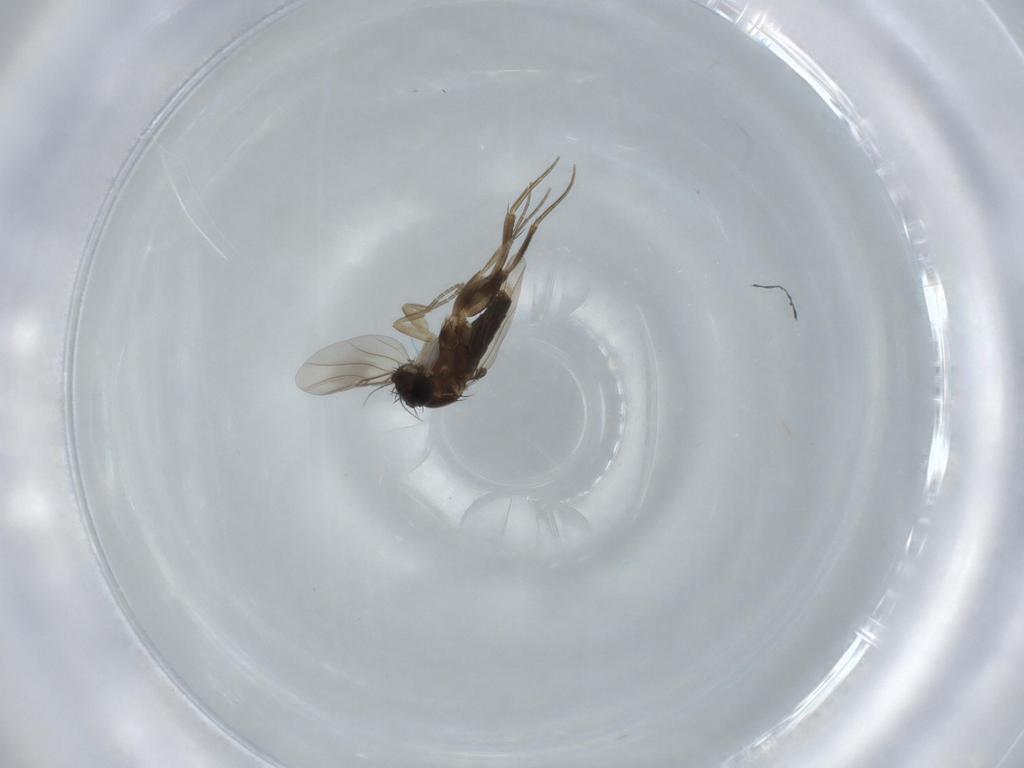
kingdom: Animalia
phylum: Arthropoda
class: Insecta
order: Diptera
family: Phoridae
